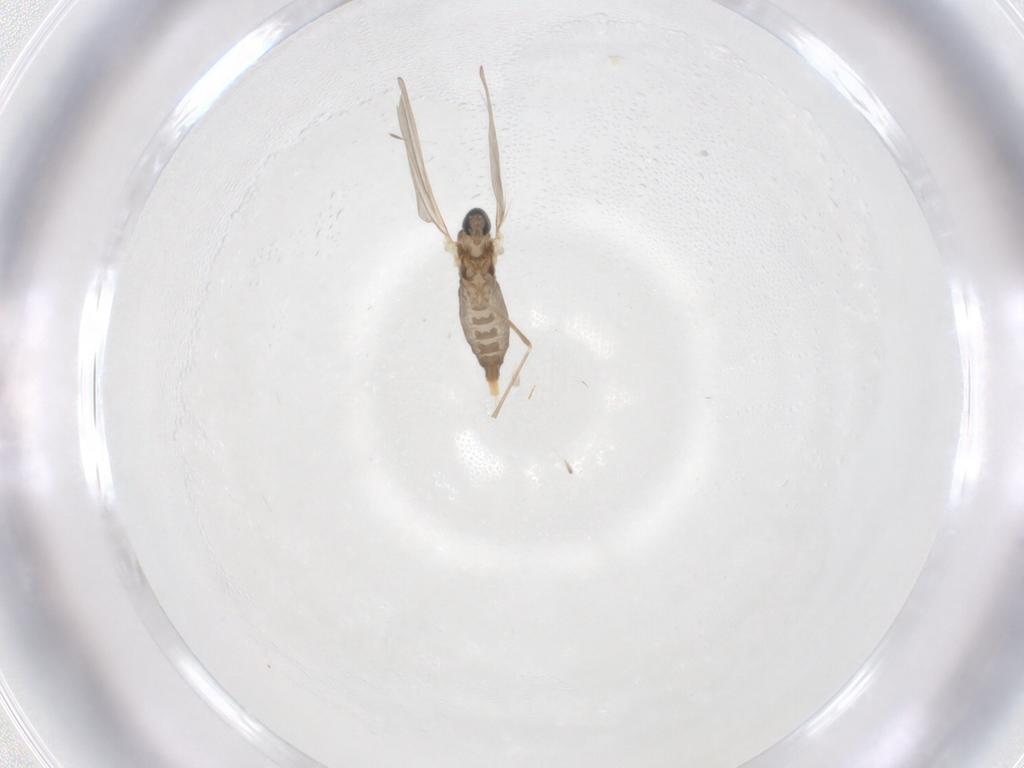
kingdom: Animalia
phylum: Arthropoda
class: Insecta
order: Diptera
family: Cecidomyiidae
